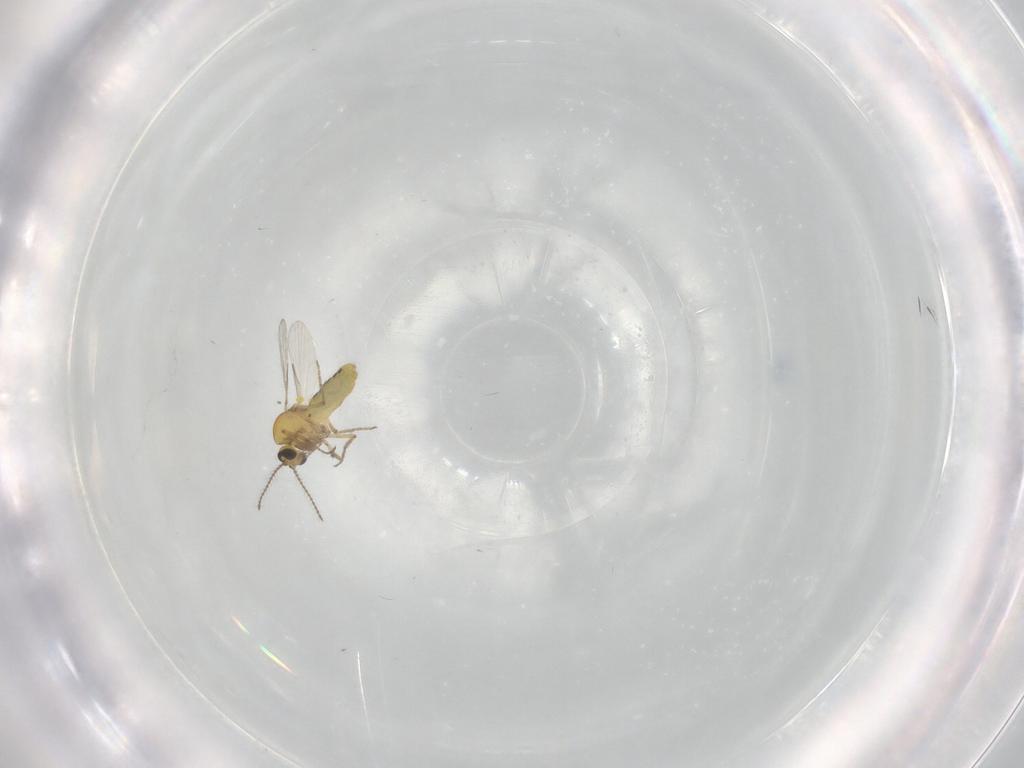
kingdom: Animalia
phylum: Arthropoda
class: Insecta
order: Diptera
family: Ceratopogonidae
